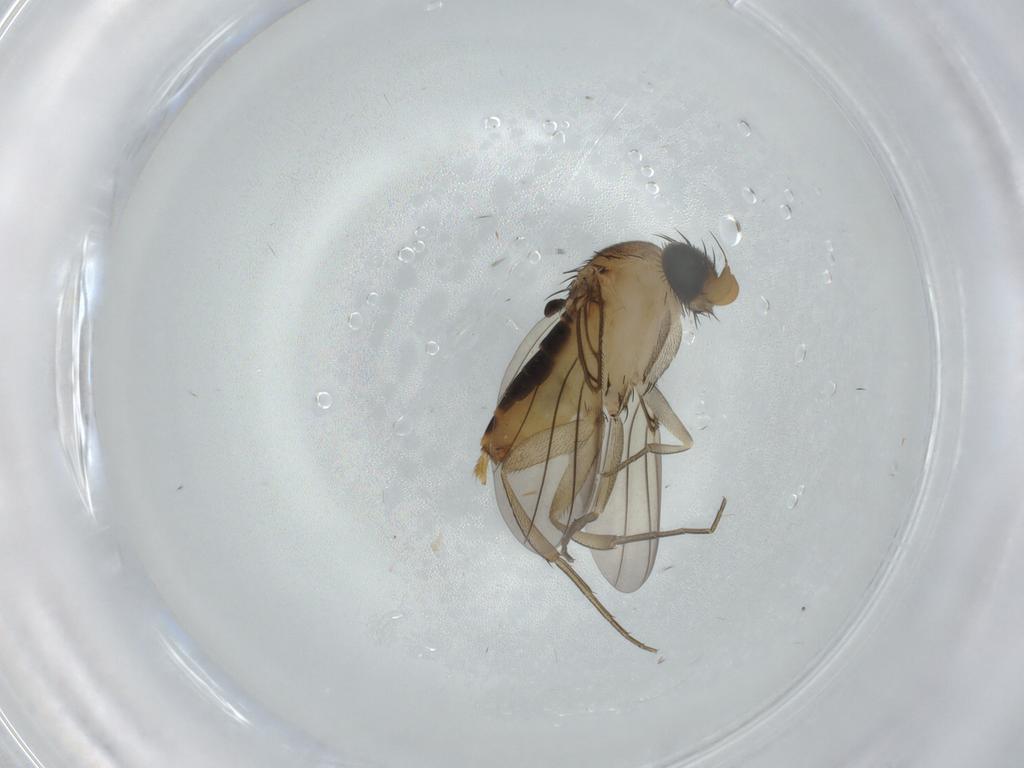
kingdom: Animalia
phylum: Arthropoda
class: Insecta
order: Diptera
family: Phoridae
